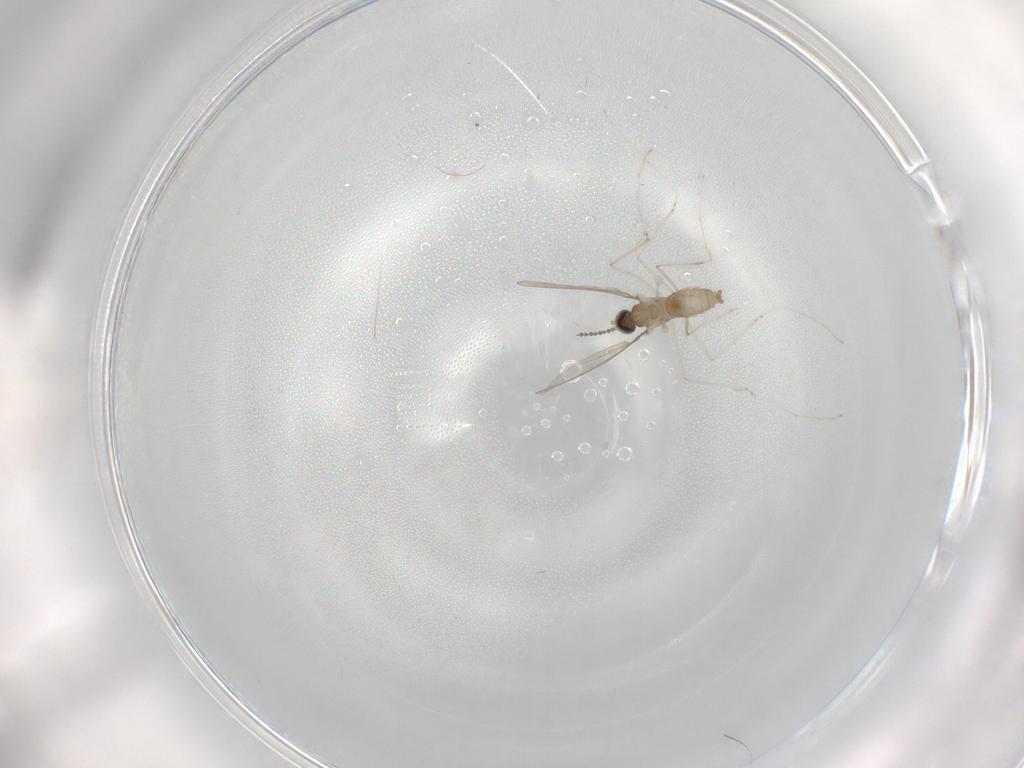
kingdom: Animalia
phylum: Arthropoda
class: Insecta
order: Diptera
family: Cecidomyiidae
